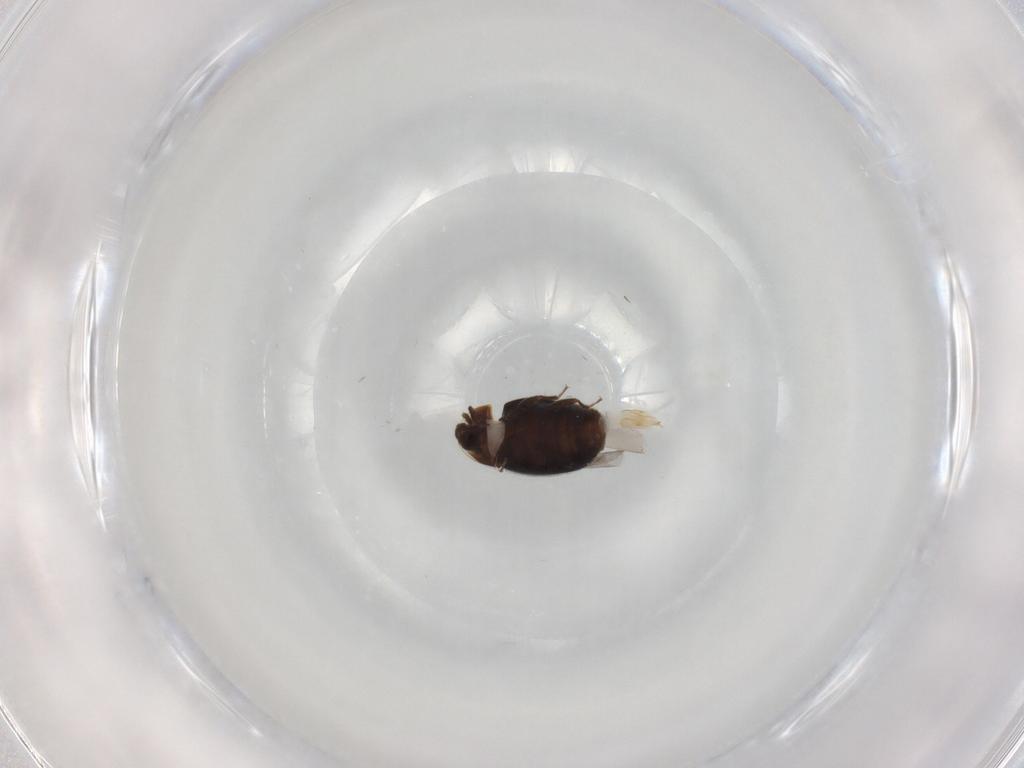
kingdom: Animalia
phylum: Arthropoda
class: Insecta
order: Coleoptera
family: Corylophidae
